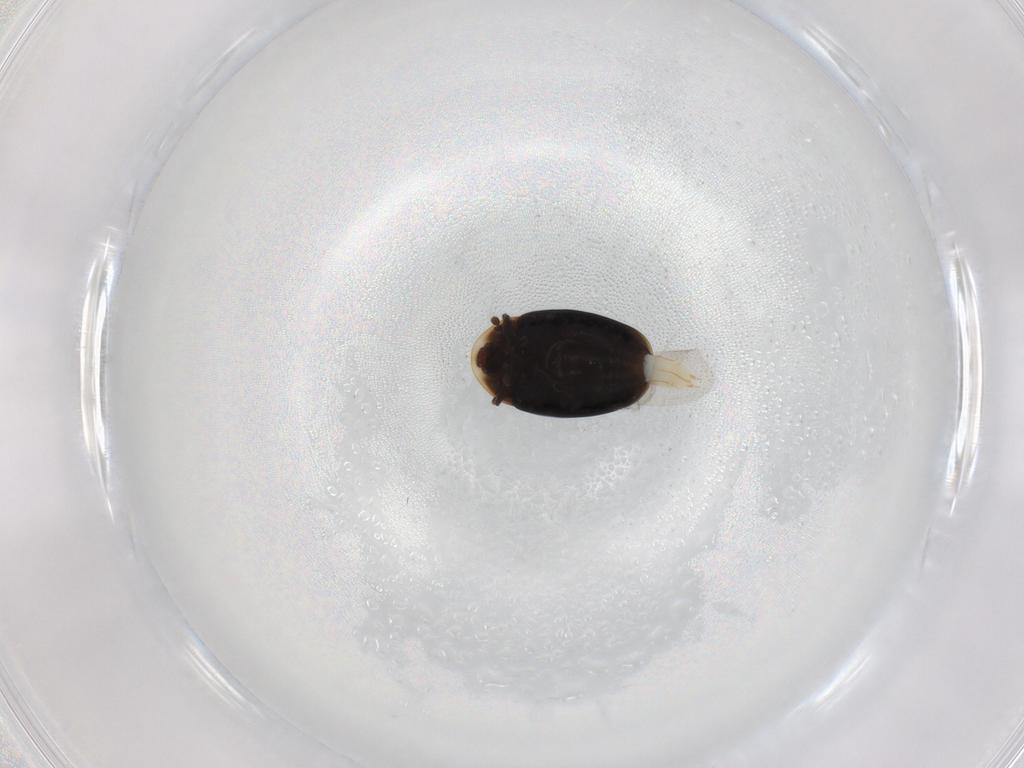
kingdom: Animalia
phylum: Arthropoda
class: Insecta
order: Coleoptera
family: Corylophidae
